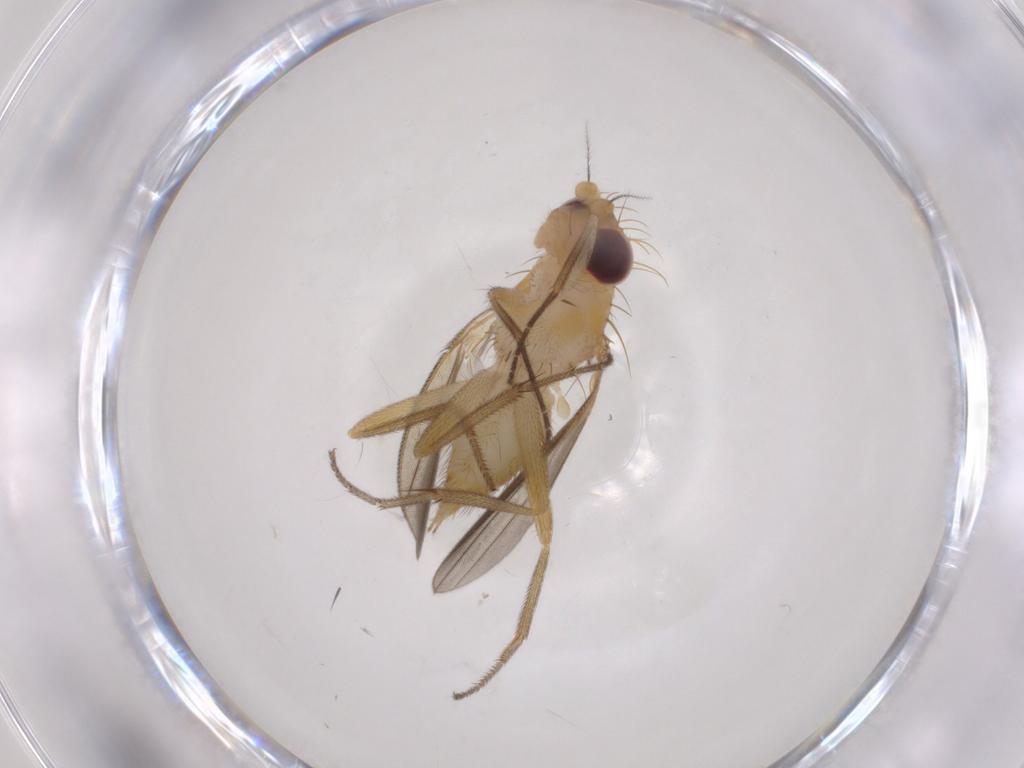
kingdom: Animalia
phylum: Arthropoda
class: Insecta
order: Diptera
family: Clusiidae
